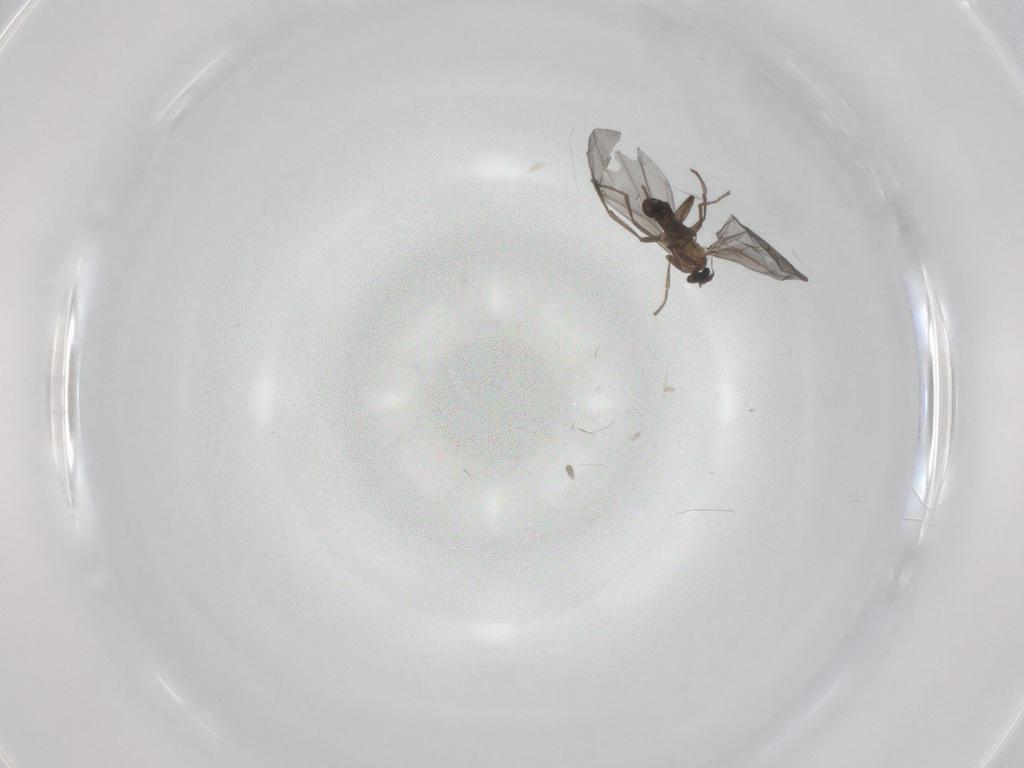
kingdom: Animalia
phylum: Arthropoda
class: Insecta
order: Diptera
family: Phoridae
